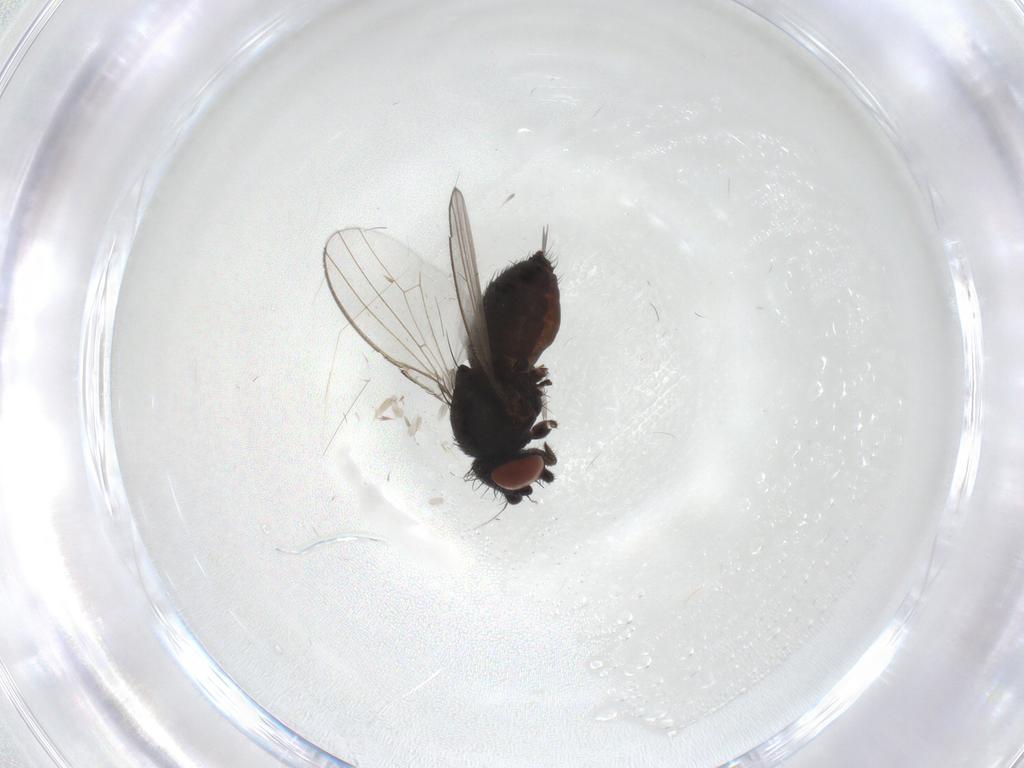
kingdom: Animalia
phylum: Arthropoda
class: Insecta
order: Diptera
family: Milichiidae
